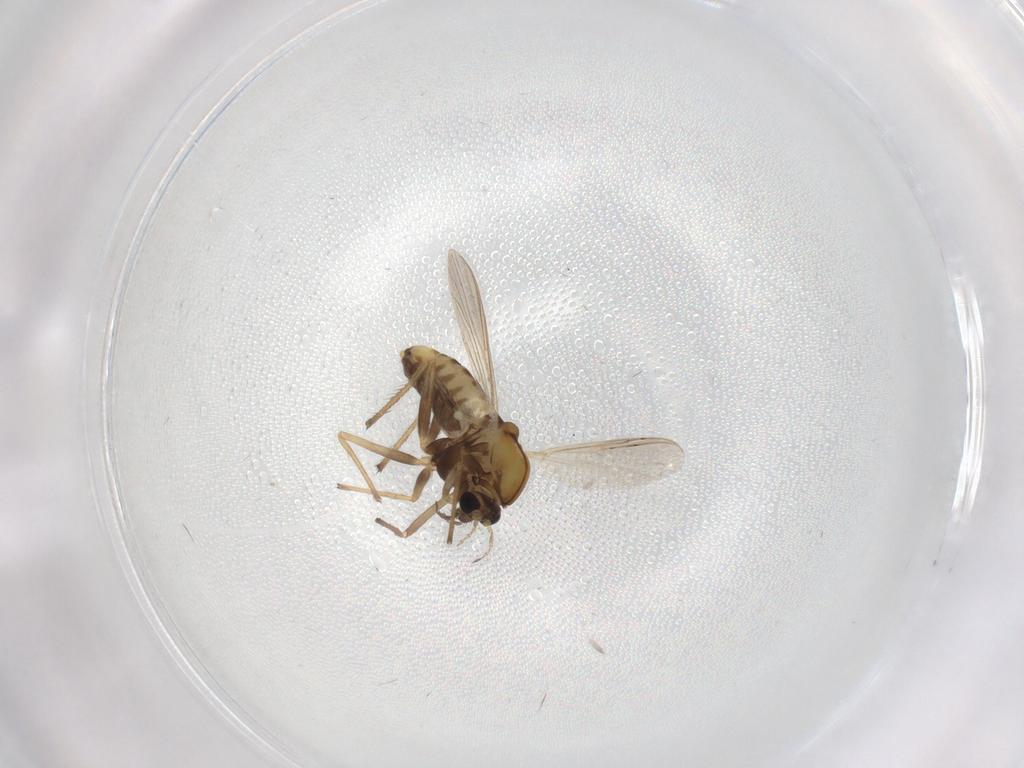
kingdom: Animalia
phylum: Arthropoda
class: Insecta
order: Diptera
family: Chironomidae
